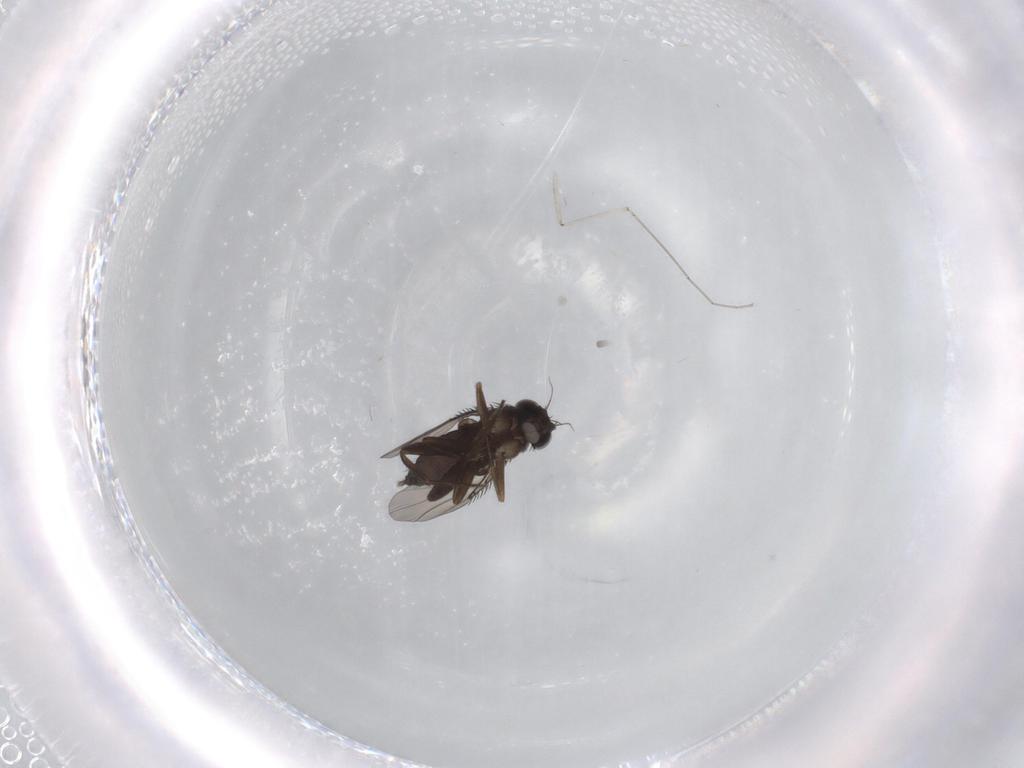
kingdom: Animalia
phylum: Arthropoda
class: Insecta
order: Diptera
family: Phoridae
